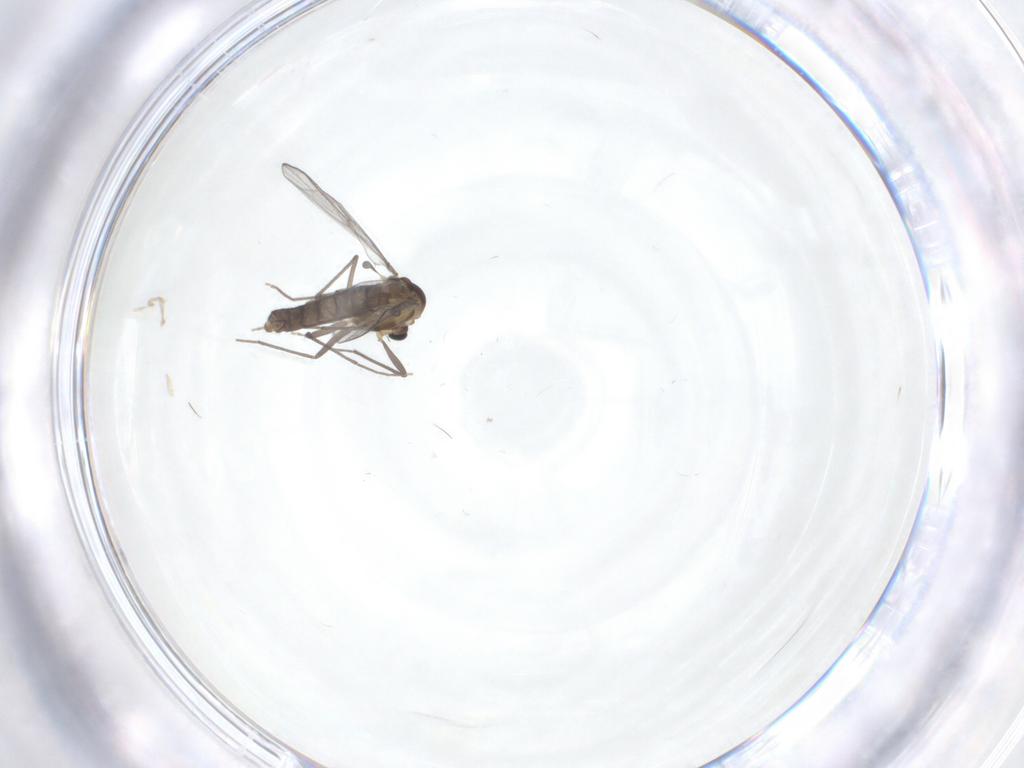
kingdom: Animalia
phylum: Arthropoda
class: Insecta
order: Diptera
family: Chironomidae
